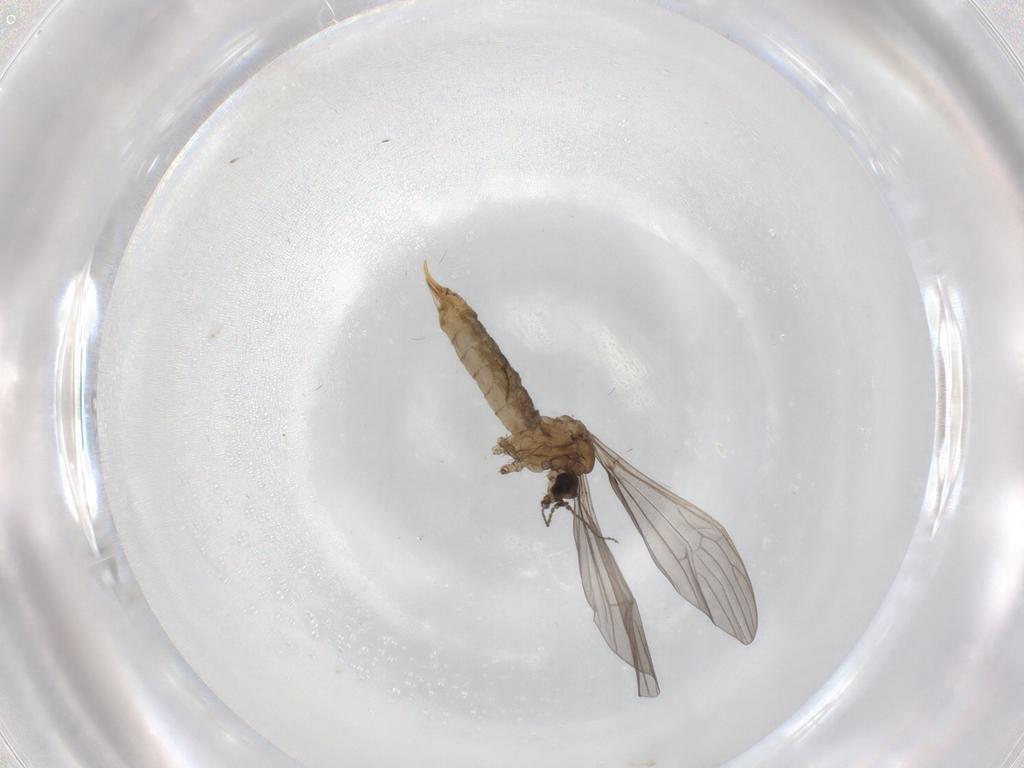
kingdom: Animalia
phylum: Arthropoda
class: Insecta
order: Diptera
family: Limoniidae
